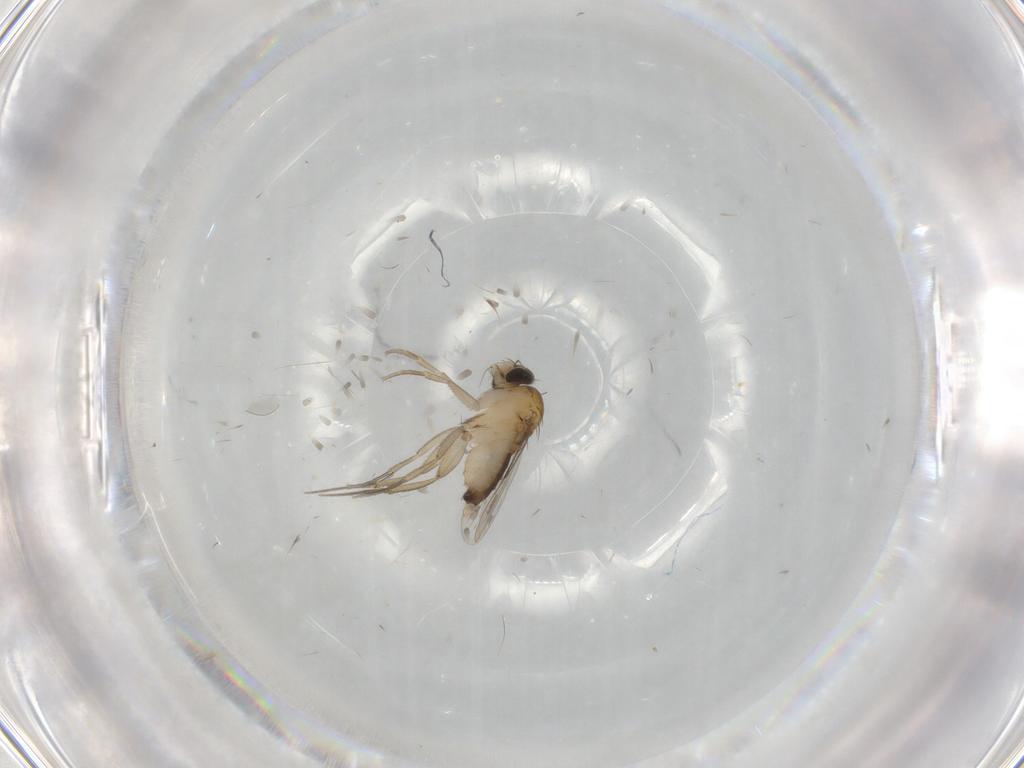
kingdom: Animalia
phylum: Arthropoda
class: Insecta
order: Diptera
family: Phoridae
